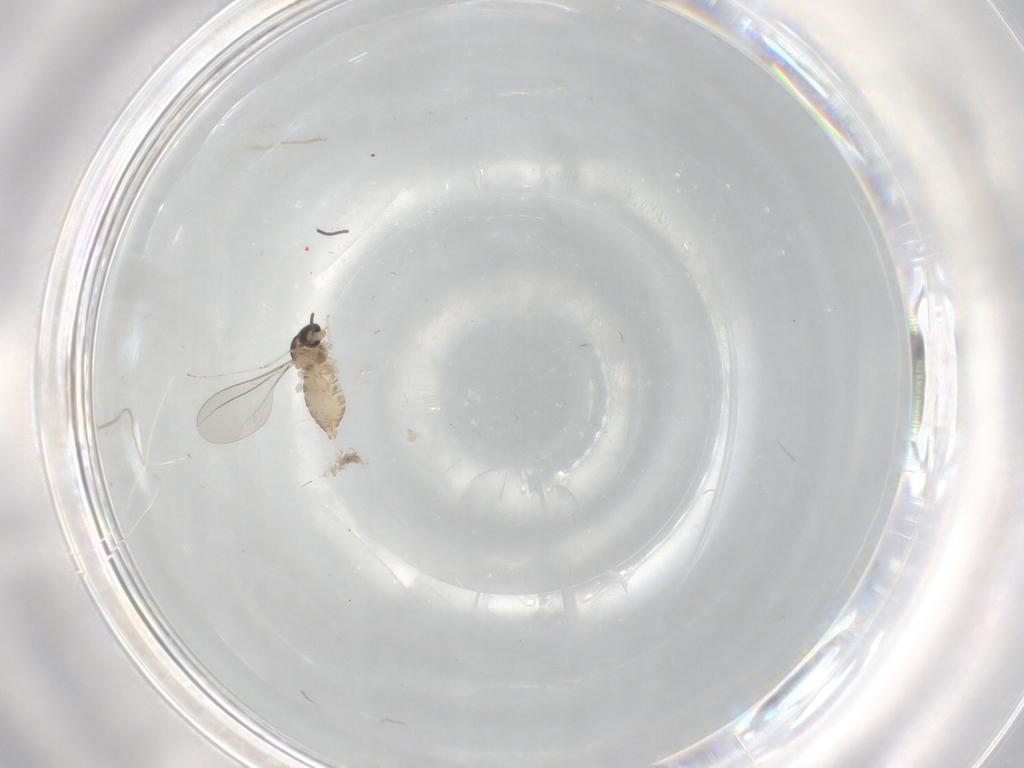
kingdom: Animalia
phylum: Arthropoda
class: Insecta
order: Diptera
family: Cecidomyiidae
